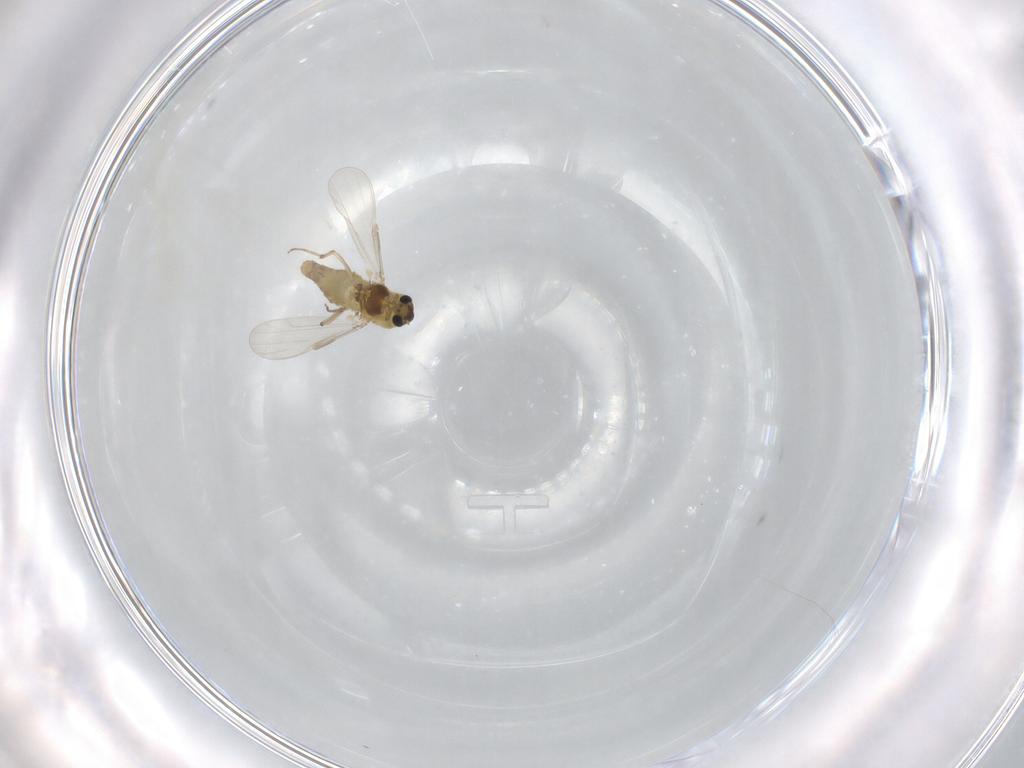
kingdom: Animalia
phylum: Arthropoda
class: Insecta
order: Diptera
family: Chironomidae
